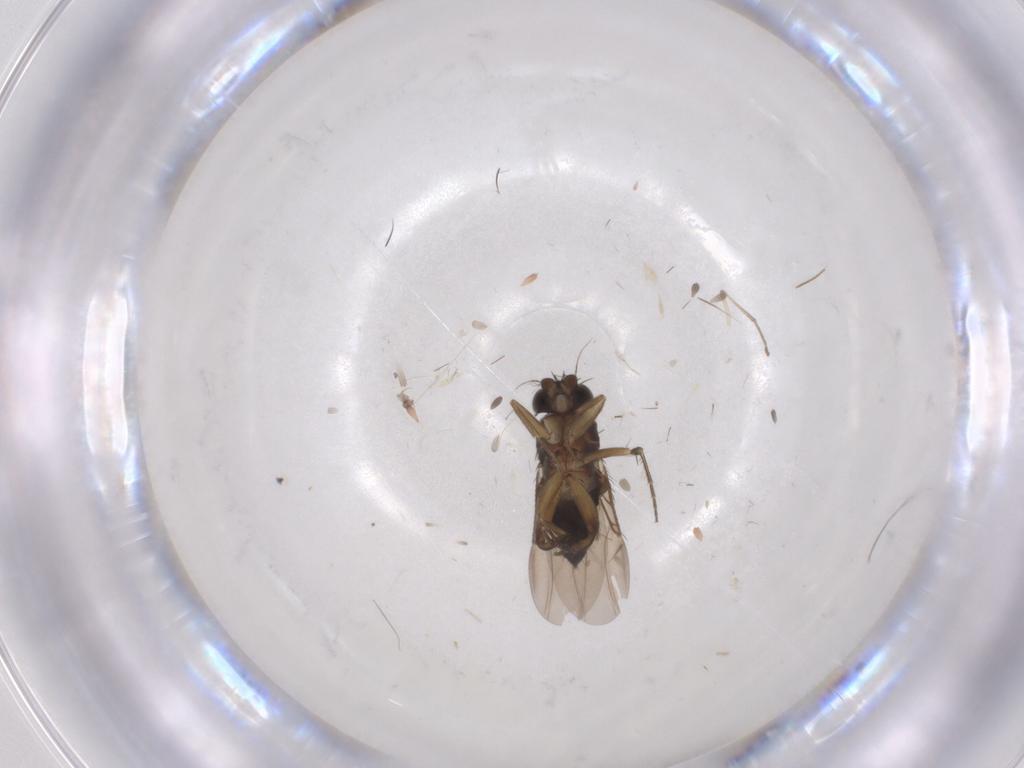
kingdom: Animalia
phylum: Arthropoda
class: Insecta
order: Diptera
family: Phoridae
